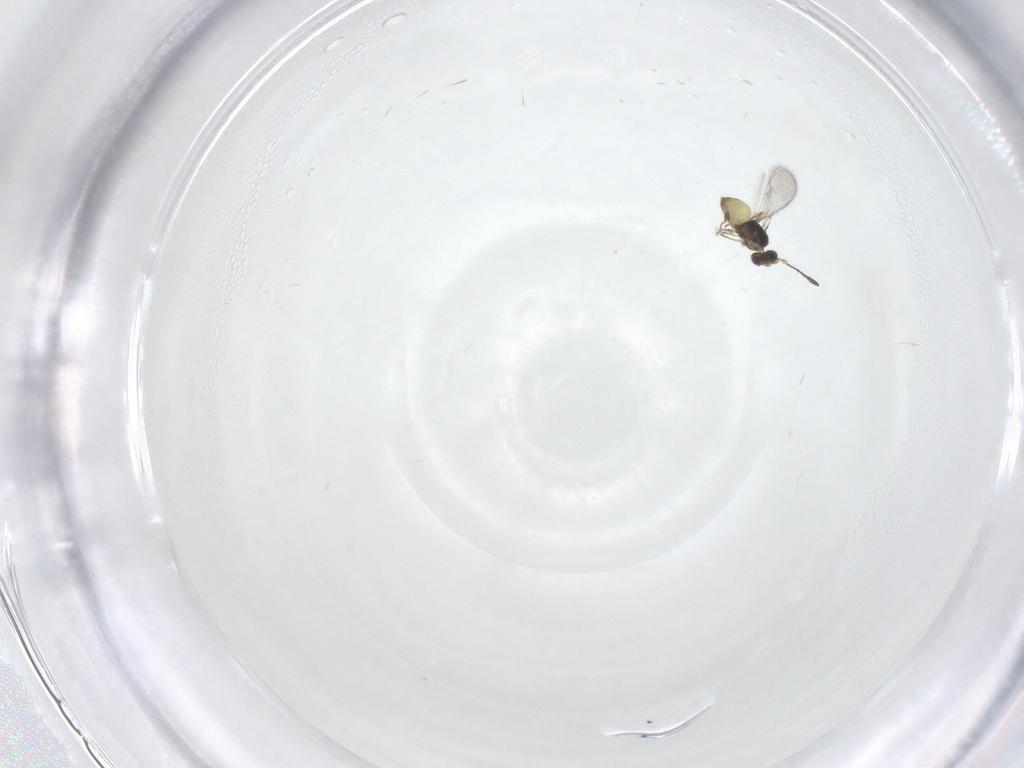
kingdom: Animalia
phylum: Arthropoda
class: Insecta
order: Hymenoptera
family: Mymaridae
